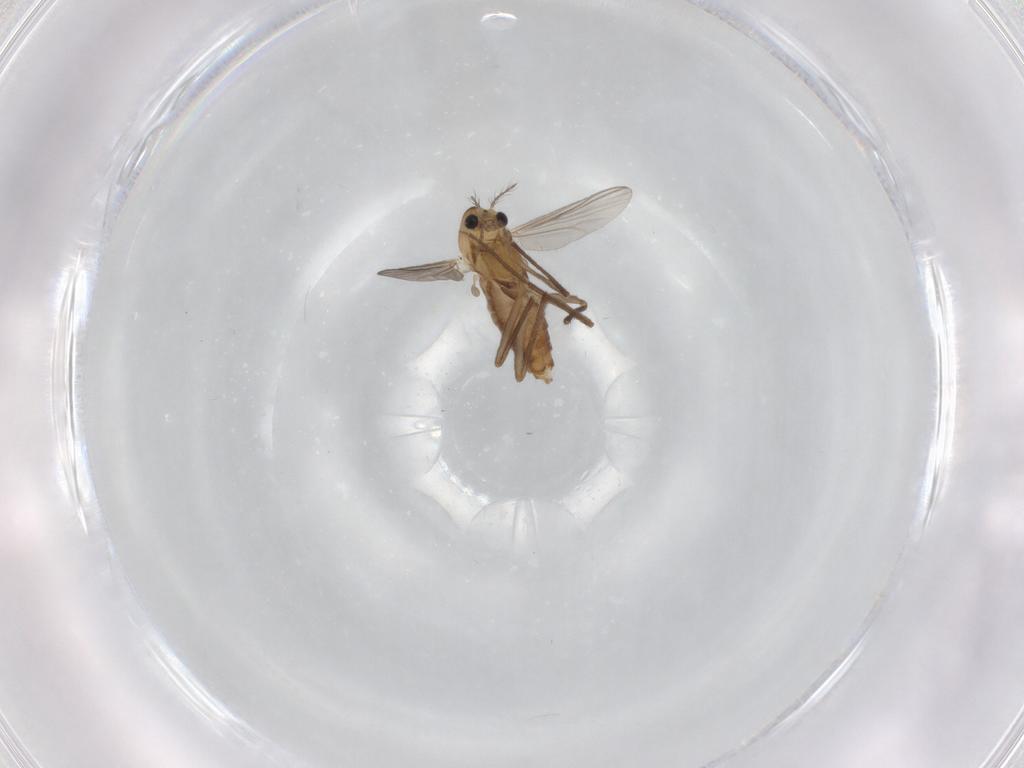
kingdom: Animalia
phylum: Arthropoda
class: Insecta
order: Diptera
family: Chironomidae
